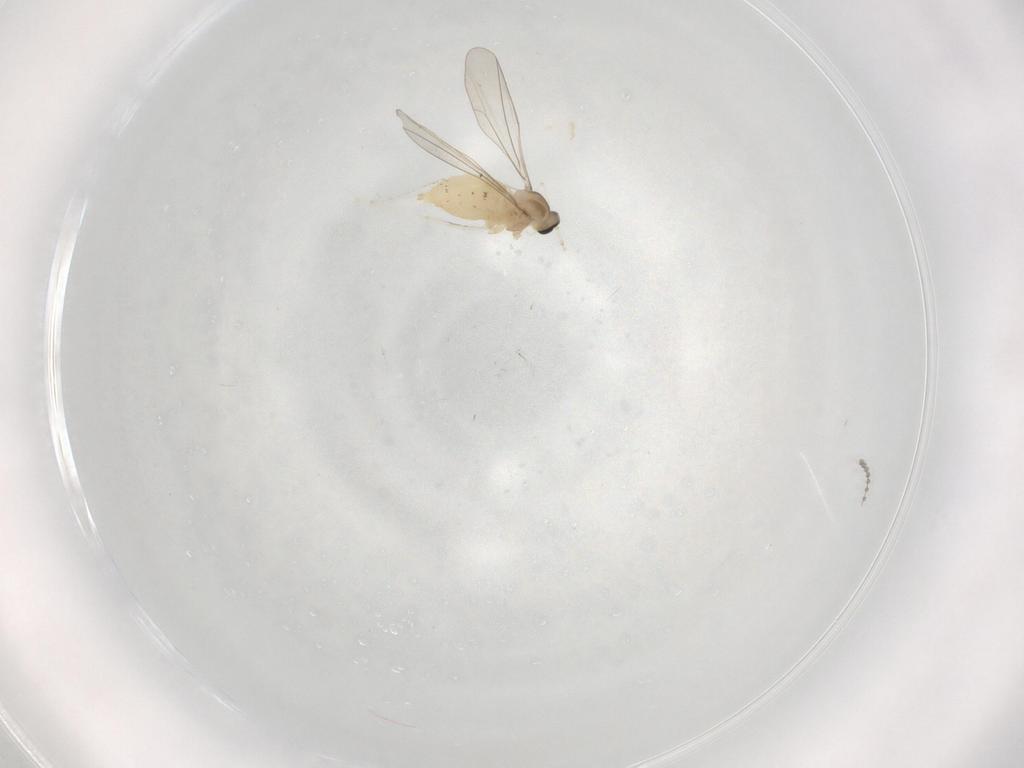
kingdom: Animalia
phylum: Arthropoda
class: Insecta
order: Diptera
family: Cecidomyiidae
